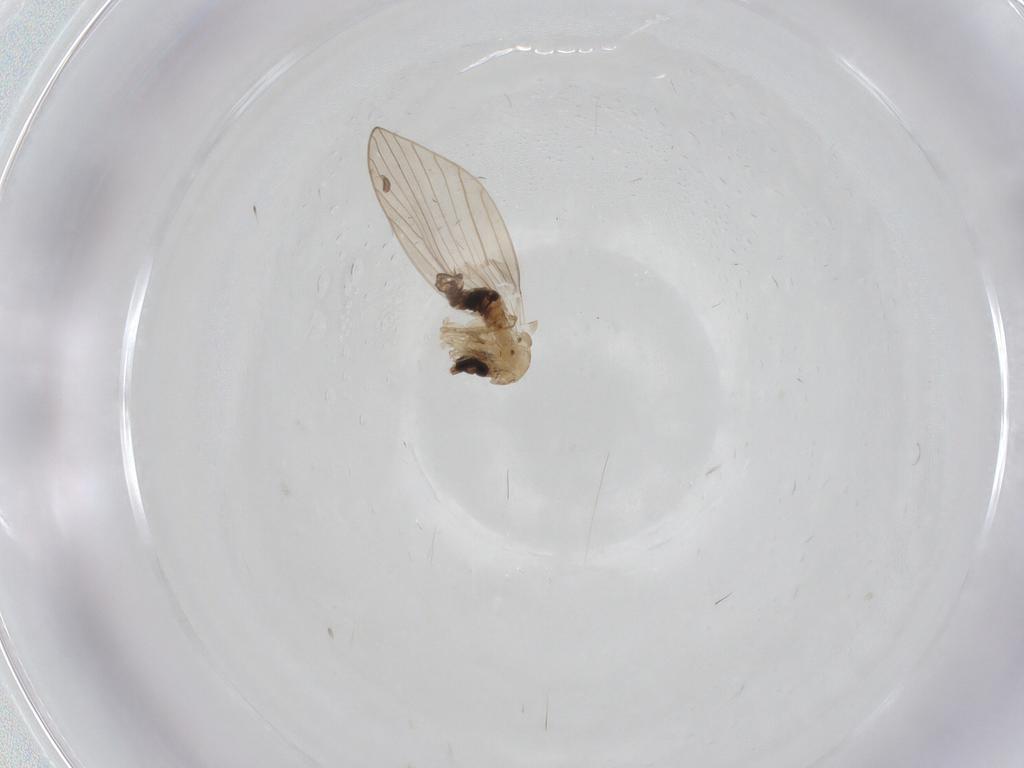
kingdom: Animalia
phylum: Arthropoda
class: Insecta
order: Diptera
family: Psychodidae
